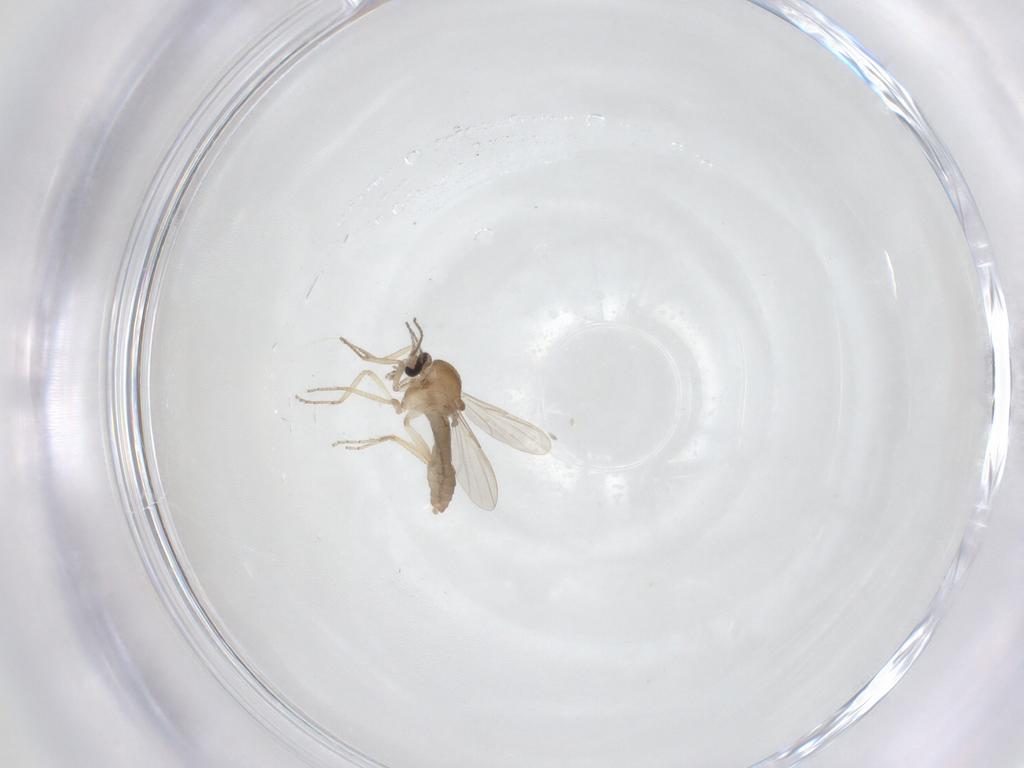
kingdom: Animalia
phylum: Arthropoda
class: Insecta
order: Diptera
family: Ceratopogonidae
